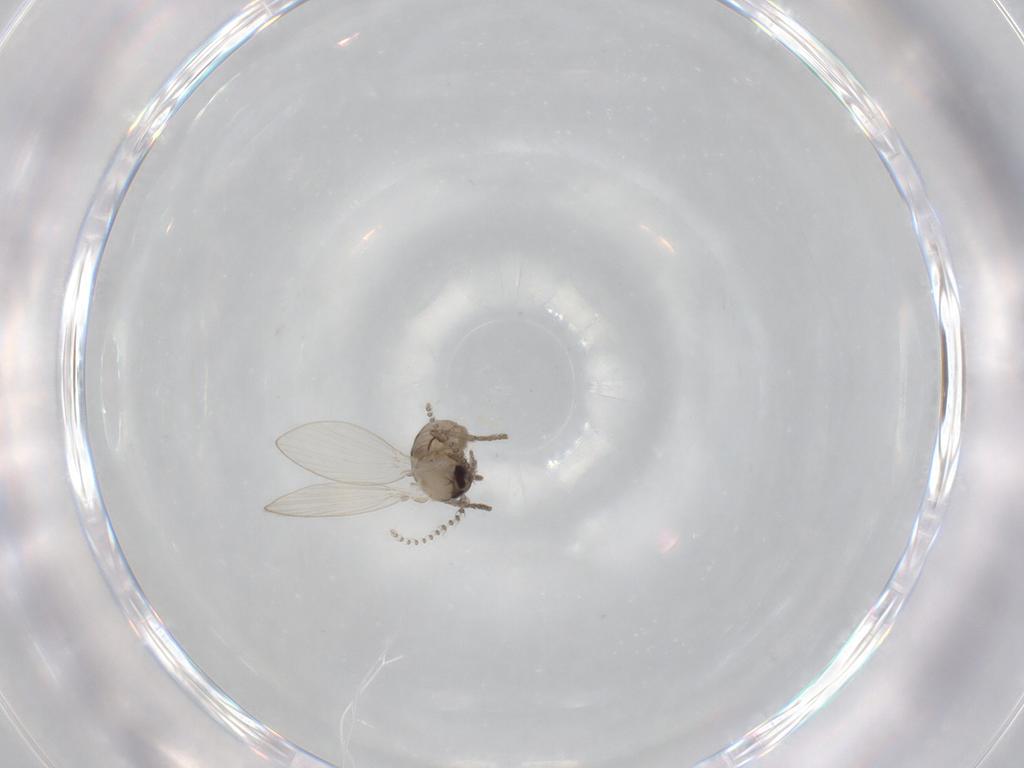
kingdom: Animalia
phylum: Arthropoda
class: Insecta
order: Diptera
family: Psychodidae
